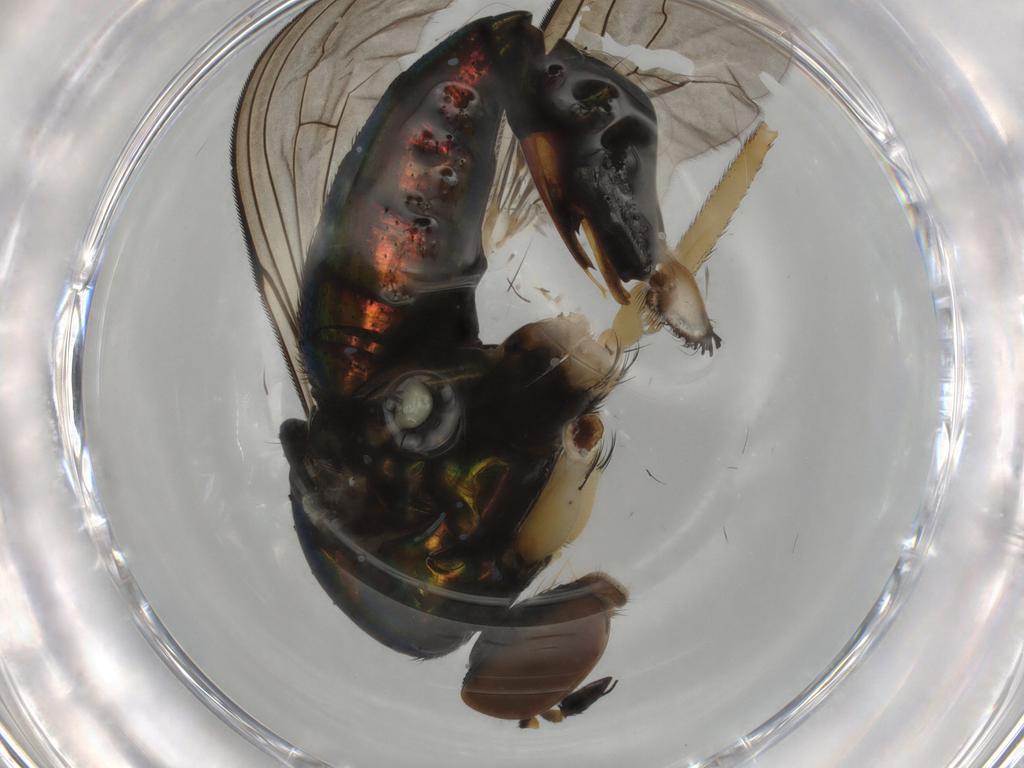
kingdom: Animalia
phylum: Arthropoda
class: Insecta
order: Diptera
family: Dolichopodidae
